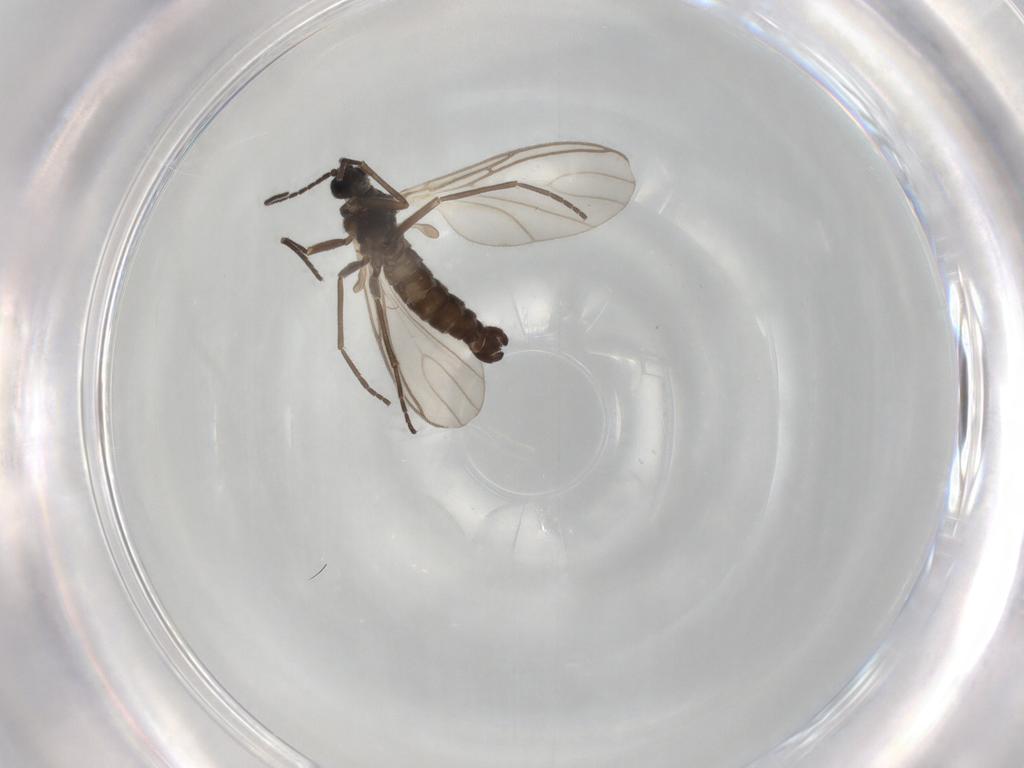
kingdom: Animalia
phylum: Arthropoda
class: Insecta
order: Diptera
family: Sciaridae
